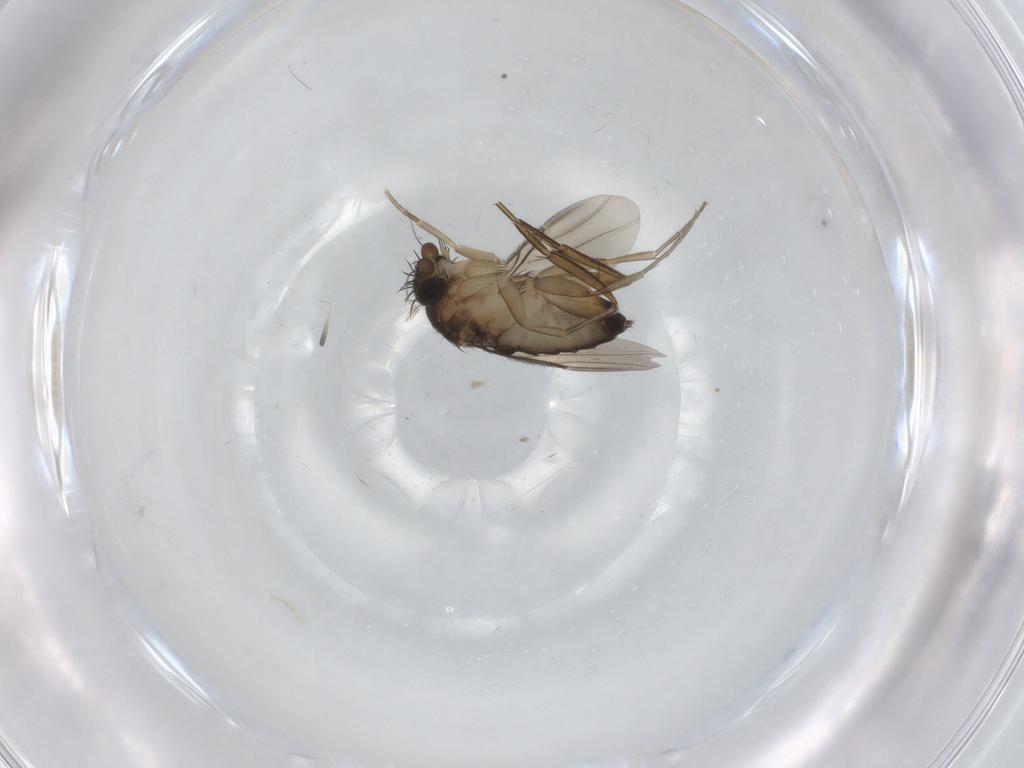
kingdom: Animalia
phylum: Arthropoda
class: Insecta
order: Diptera
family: Phoridae
